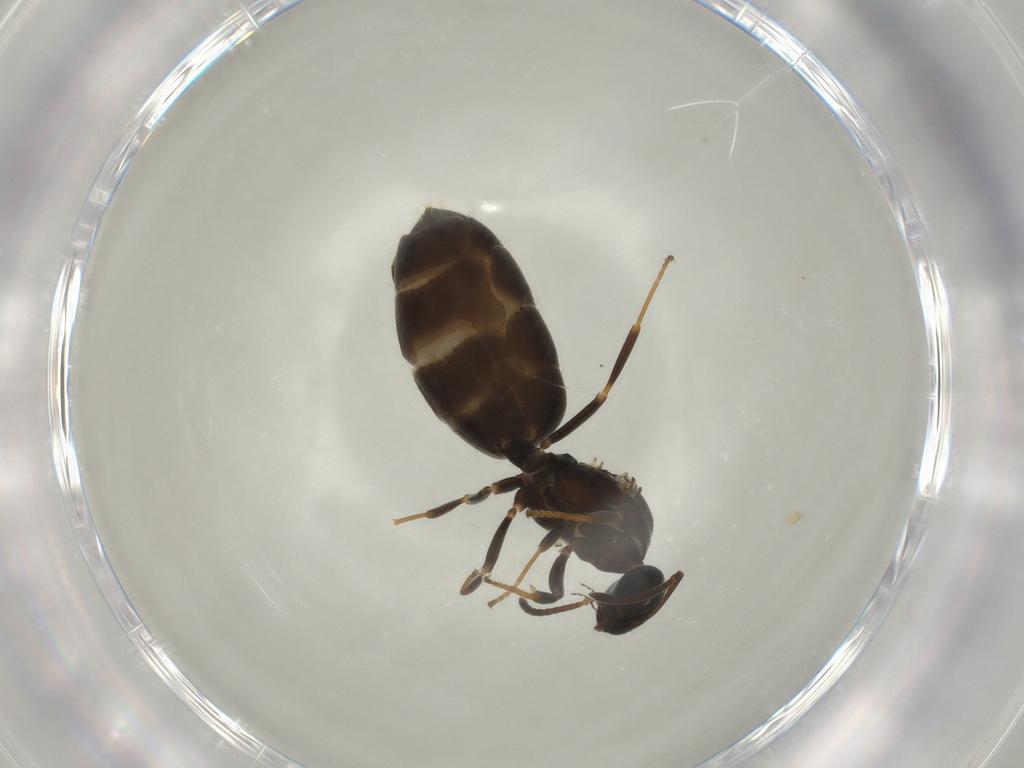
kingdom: Animalia
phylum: Arthropoda
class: Insecta
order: Hymenoptera
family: Formicidae
